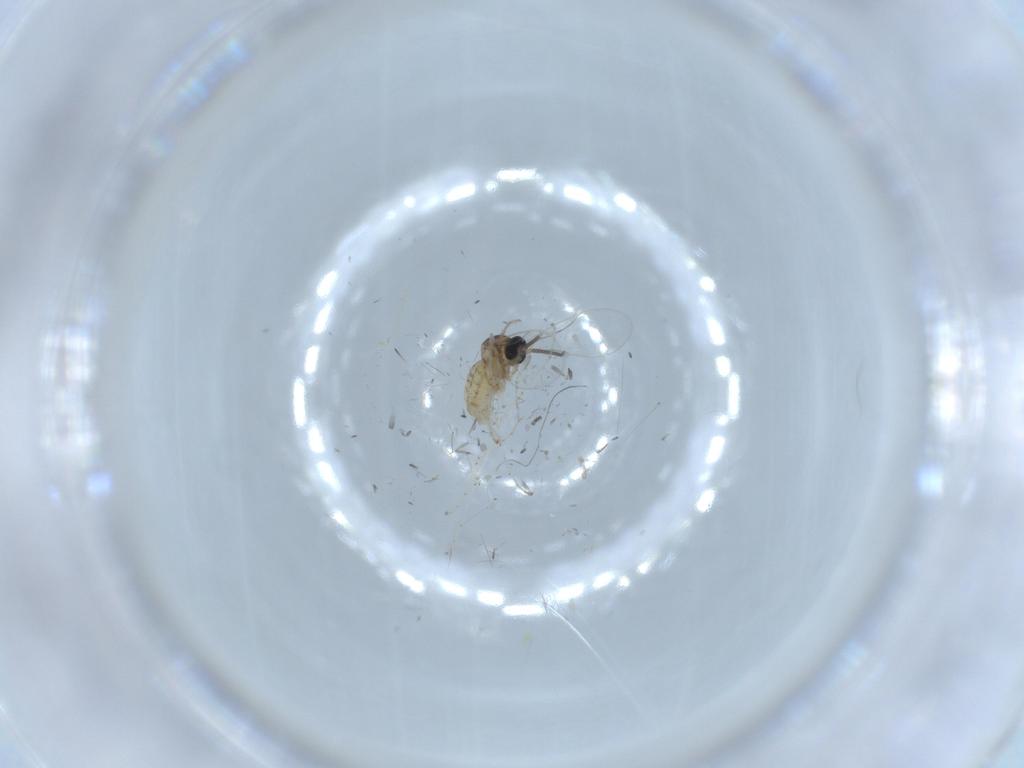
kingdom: Animalia
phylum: Arthropoda
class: Insecta
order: Diptera
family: Cecidomyiidae
